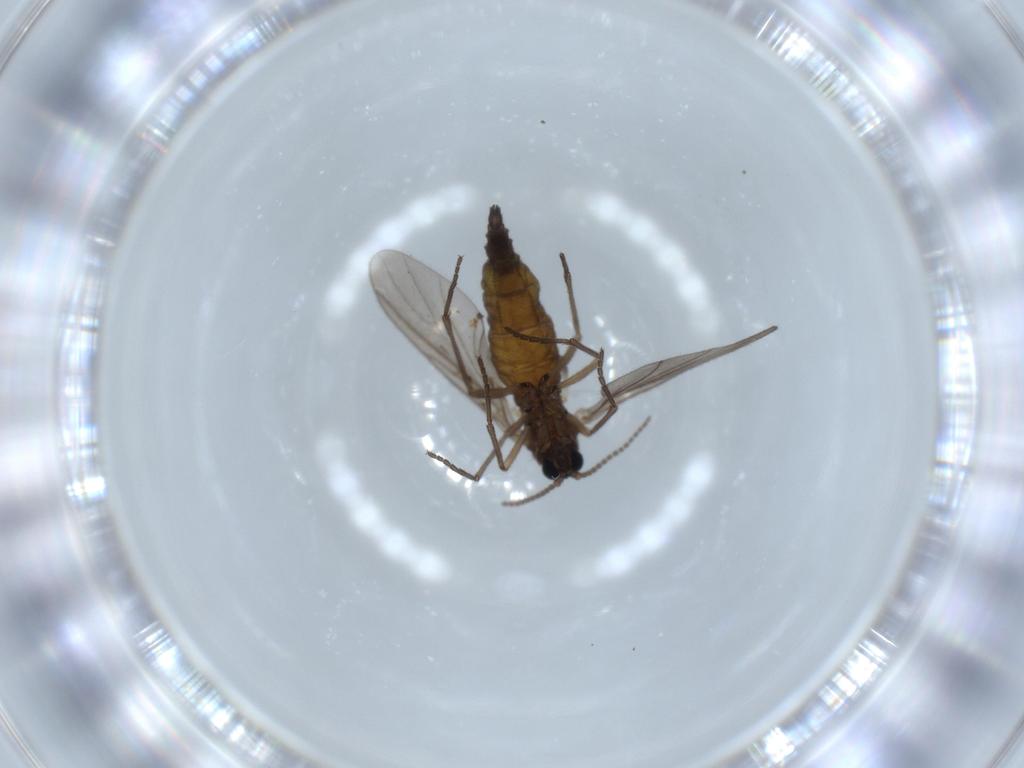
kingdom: Animalia
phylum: Arthropoda
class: Insecta
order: Diptera
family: Sciaridae
